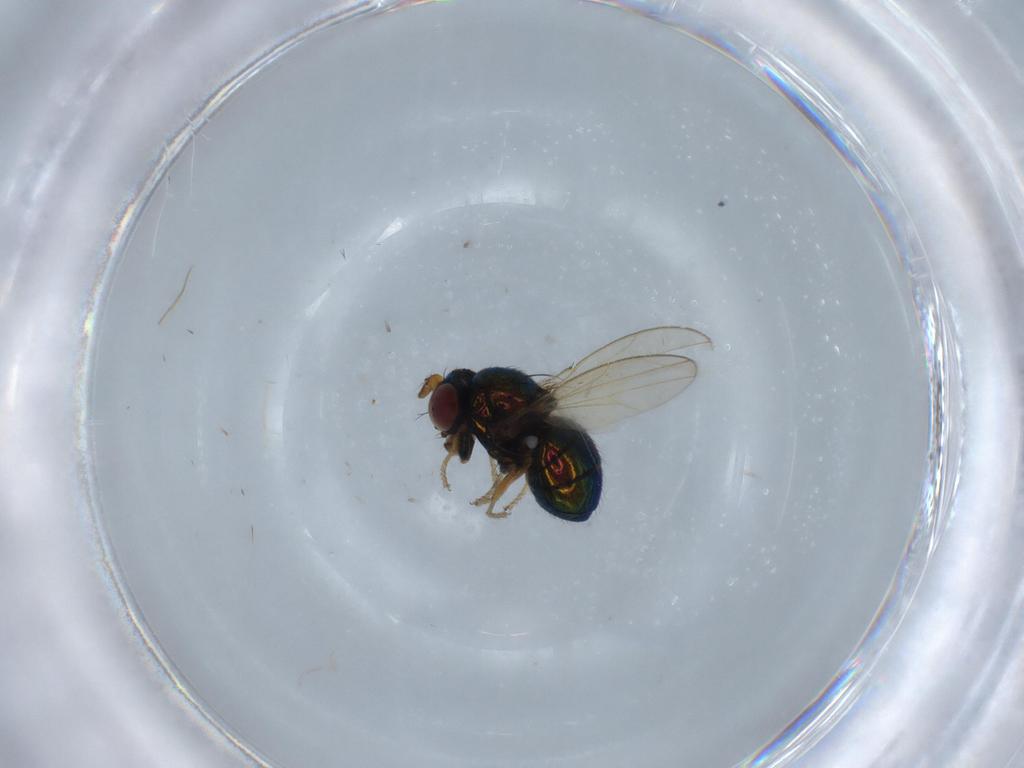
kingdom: Animalia
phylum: Arthropoda
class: Insecta
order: Diptera
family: Ephydridae
